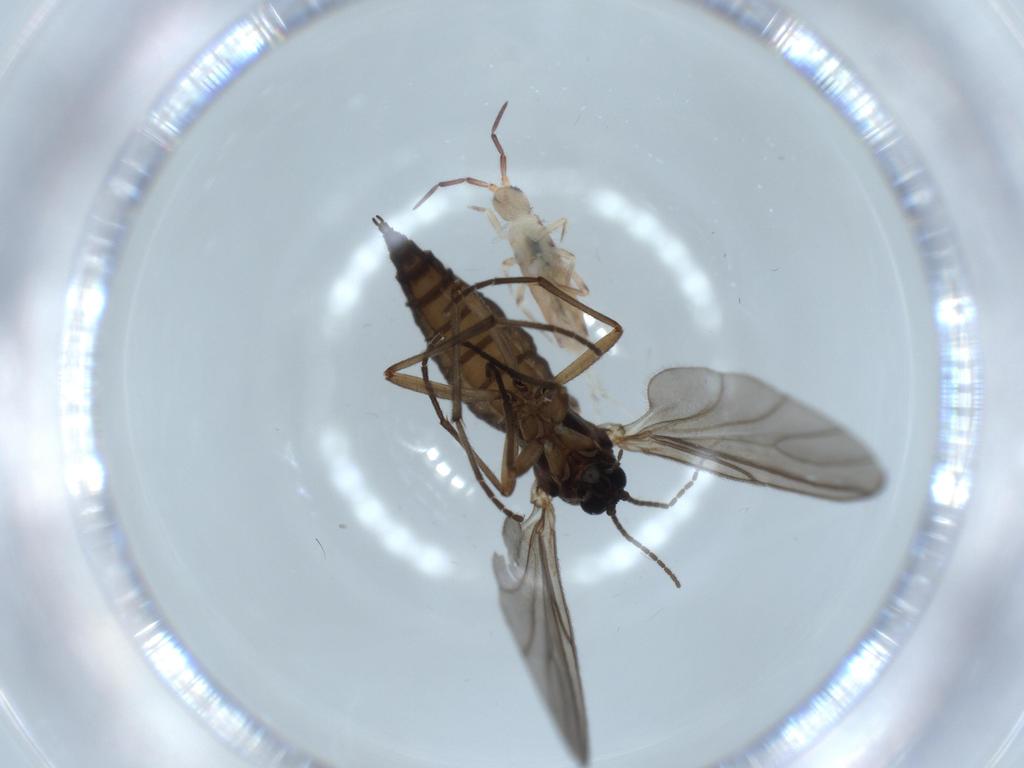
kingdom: Animalia
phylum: Arthropoda
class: Collembola
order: Entomobryomorpha
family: Entomobryidae
